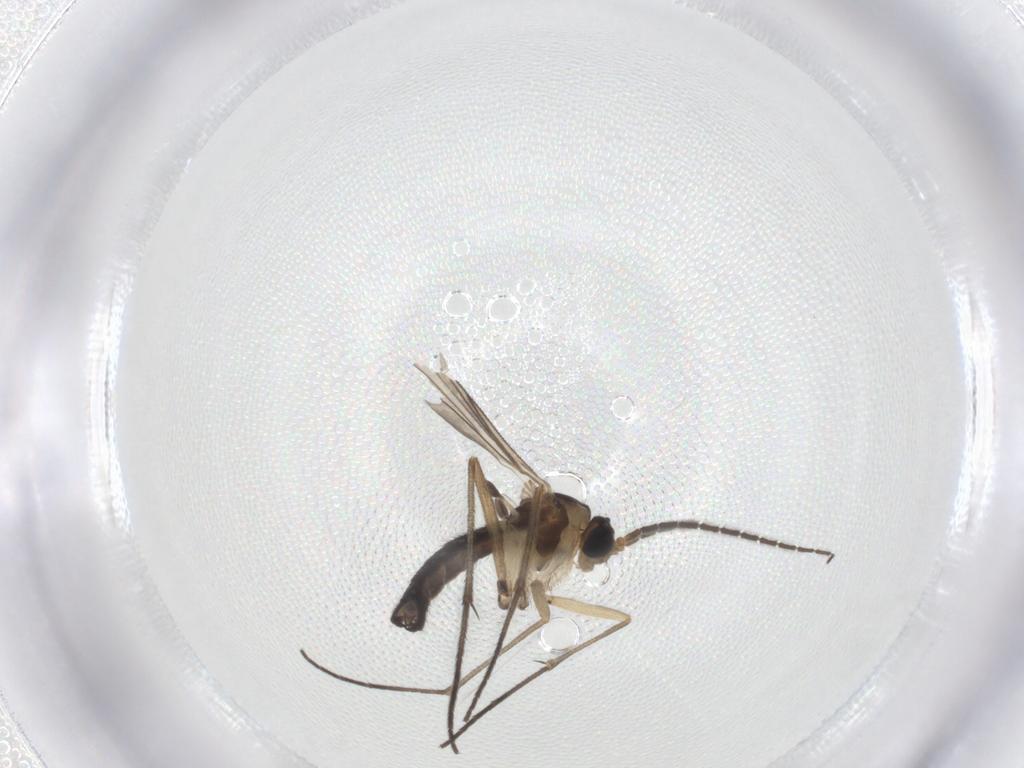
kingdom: Animalia
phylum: Arthropoda
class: Insecta
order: Diptera
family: Sciaridae
